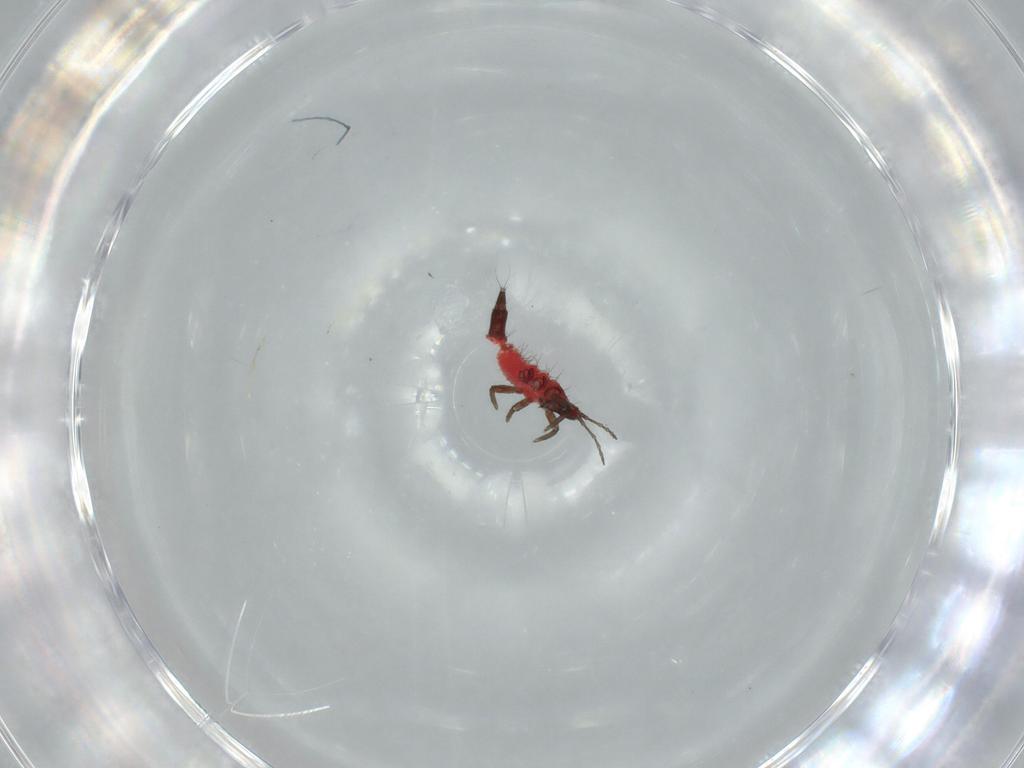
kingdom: Animalia
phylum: Arthropoda
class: Insecta
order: Thysanoptera
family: Phlaeothripidae
